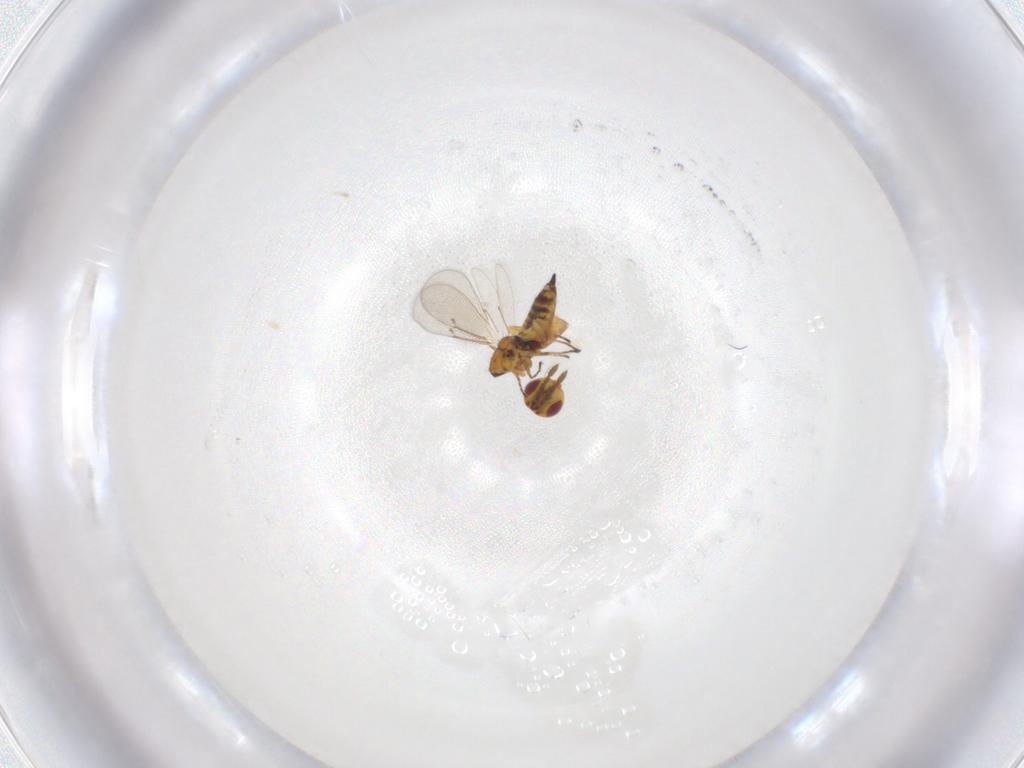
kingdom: Animalia
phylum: Arthropoda
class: Insecta
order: Hymenoptera
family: Eulophidae
